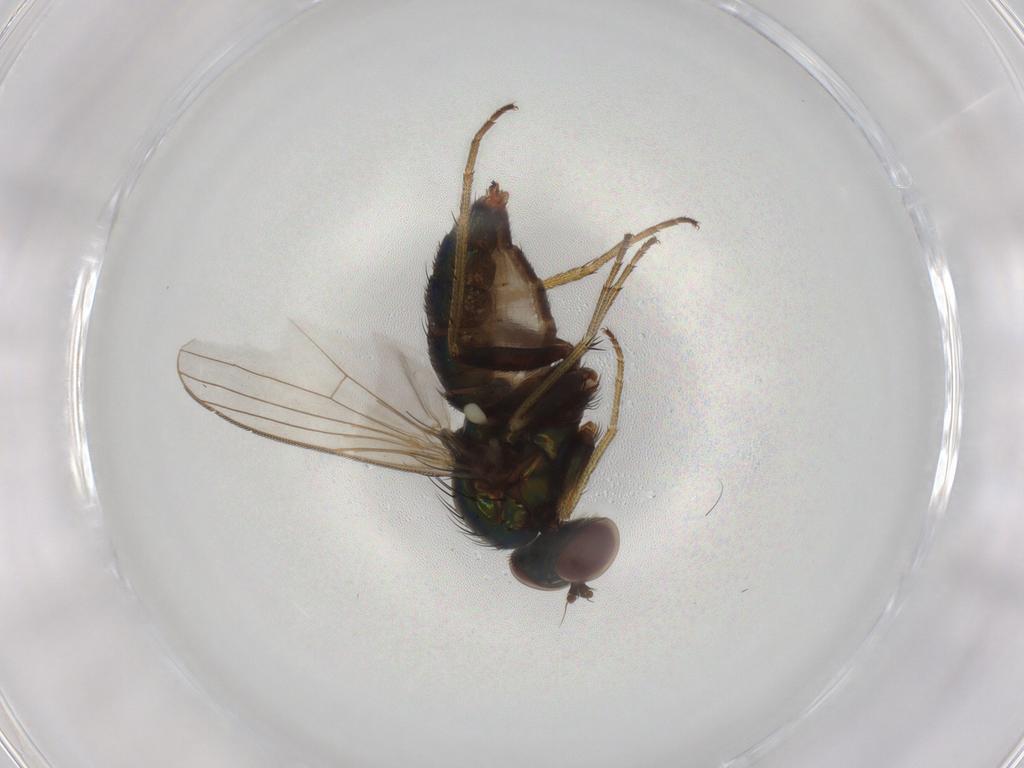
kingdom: Animalia
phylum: Arthropoda
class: Insecta
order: Diptera
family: Dolichopodidae
